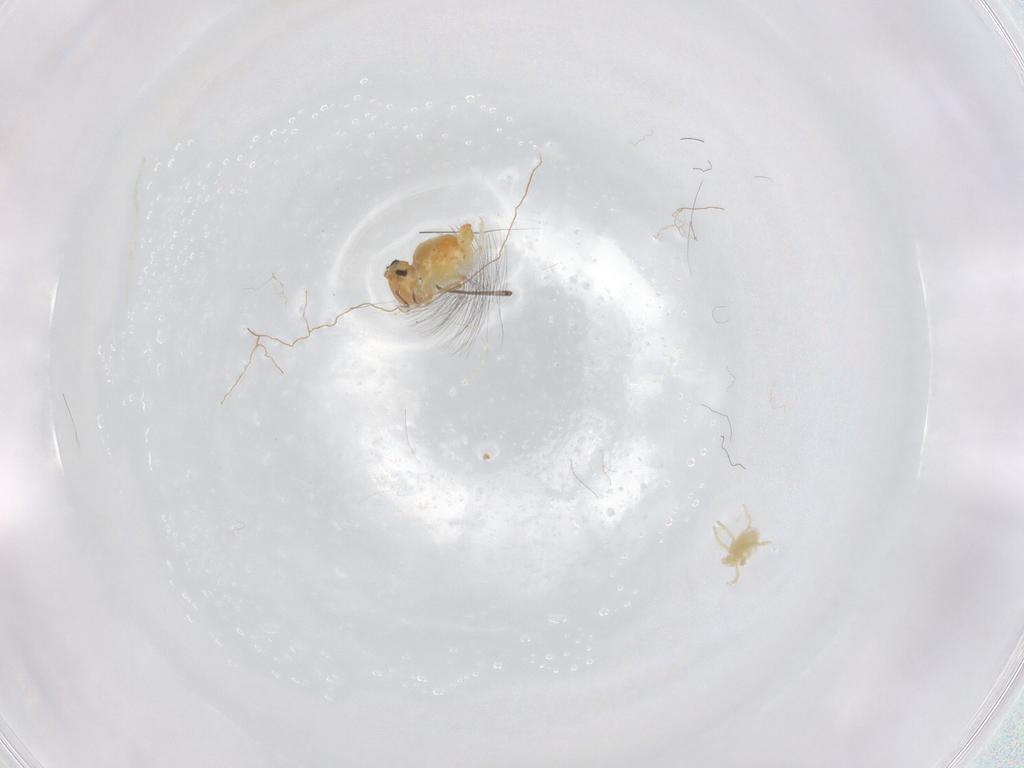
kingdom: Animalia
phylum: Arthropoda
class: Collembola
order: Symphypleona
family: Bourletiellidae
